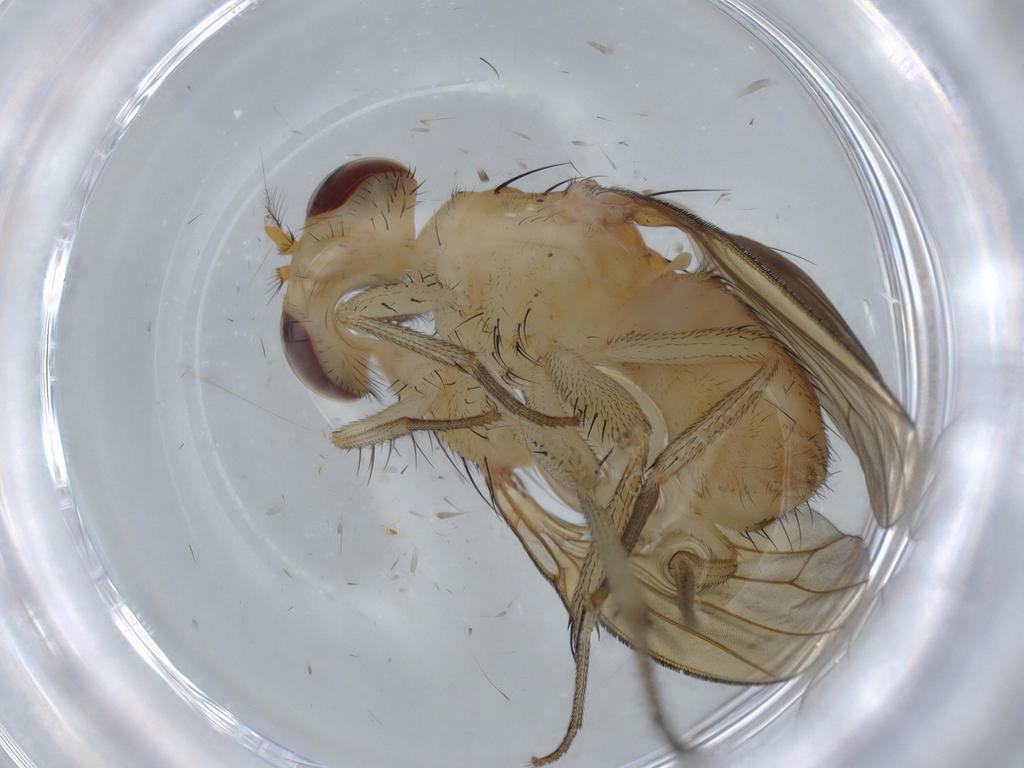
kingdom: Animalia
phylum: Arthropoda
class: Insecta
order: Diptera
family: Sciaridae
